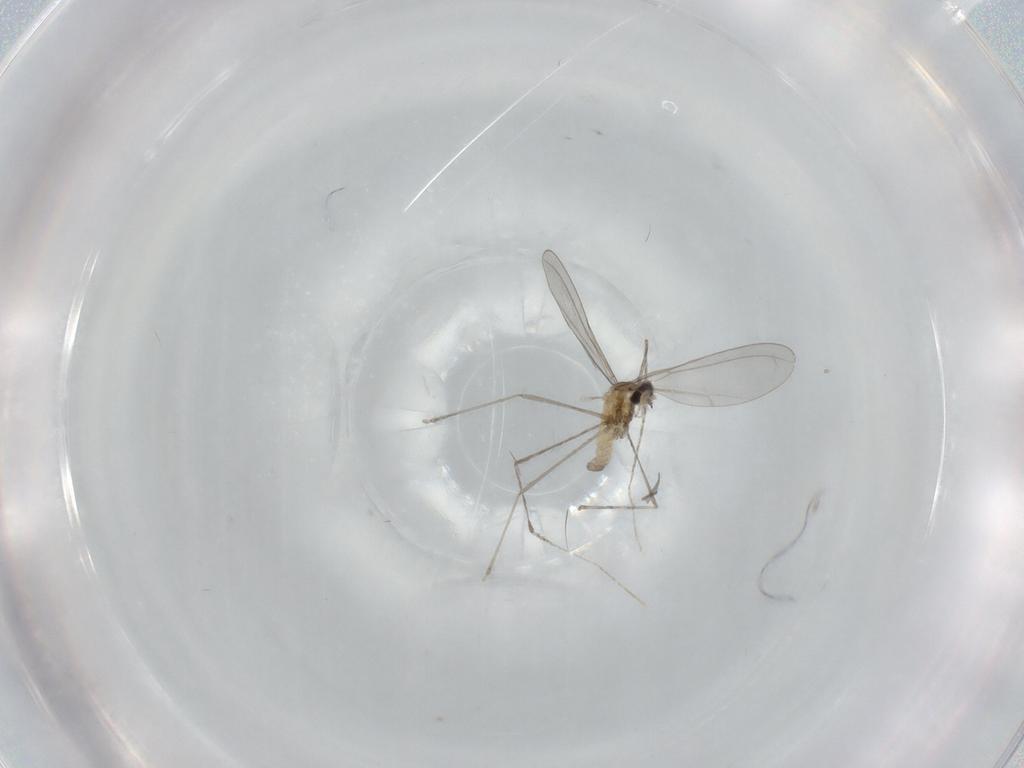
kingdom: Animalia
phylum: Arthropoda
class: Insecta
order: Diptera
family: Cecidomyiidae
